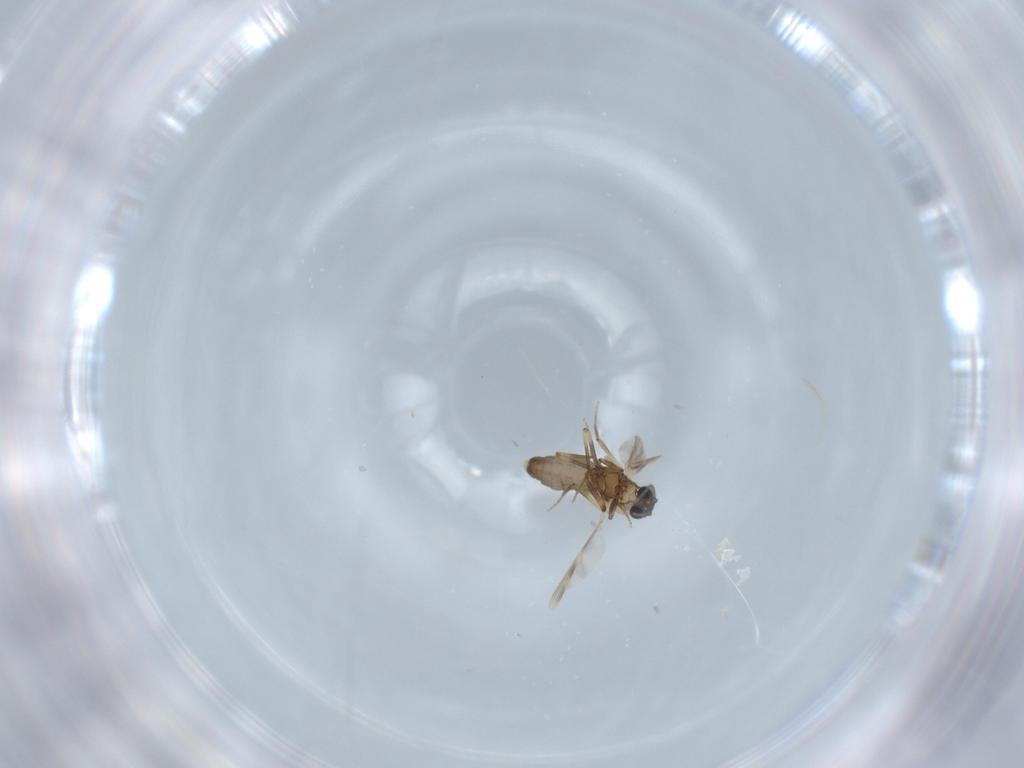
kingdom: Animalia
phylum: Arthropoda
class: Insecta
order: Diptera
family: Ceratopogonidae
